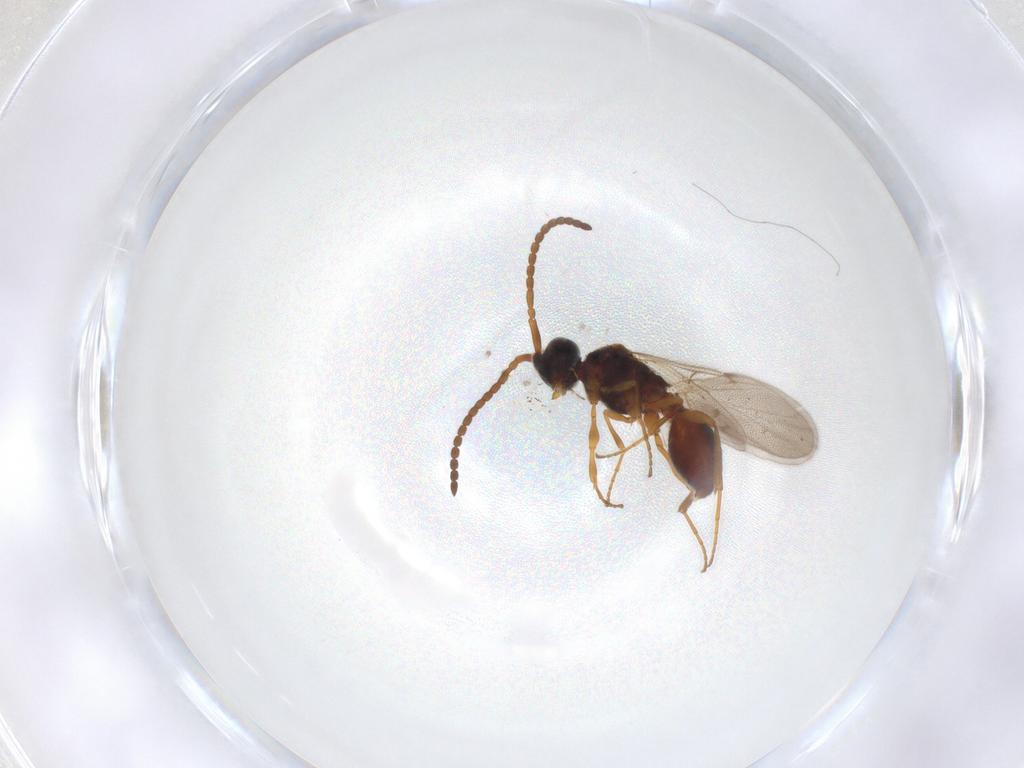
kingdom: Animalia
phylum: Arthropoda
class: Insecta
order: Hymenoptera
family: Diapriidae
